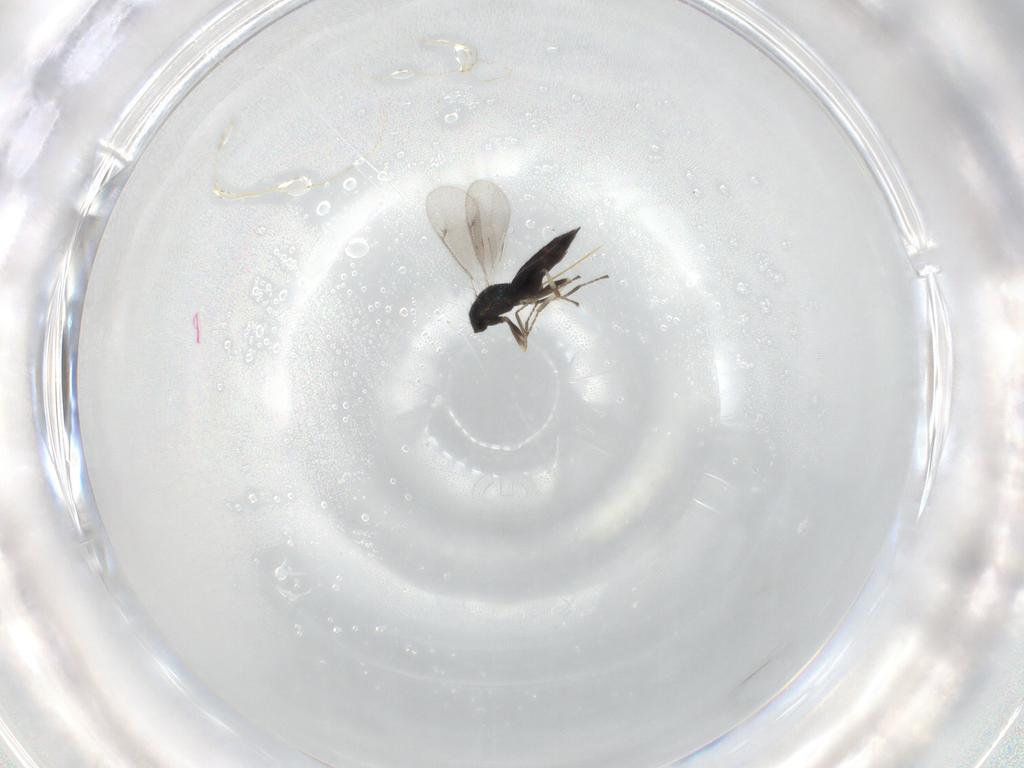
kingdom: Animalia
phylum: Arthropoda
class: Insecta
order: Hymenoptera
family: Eulophidae
